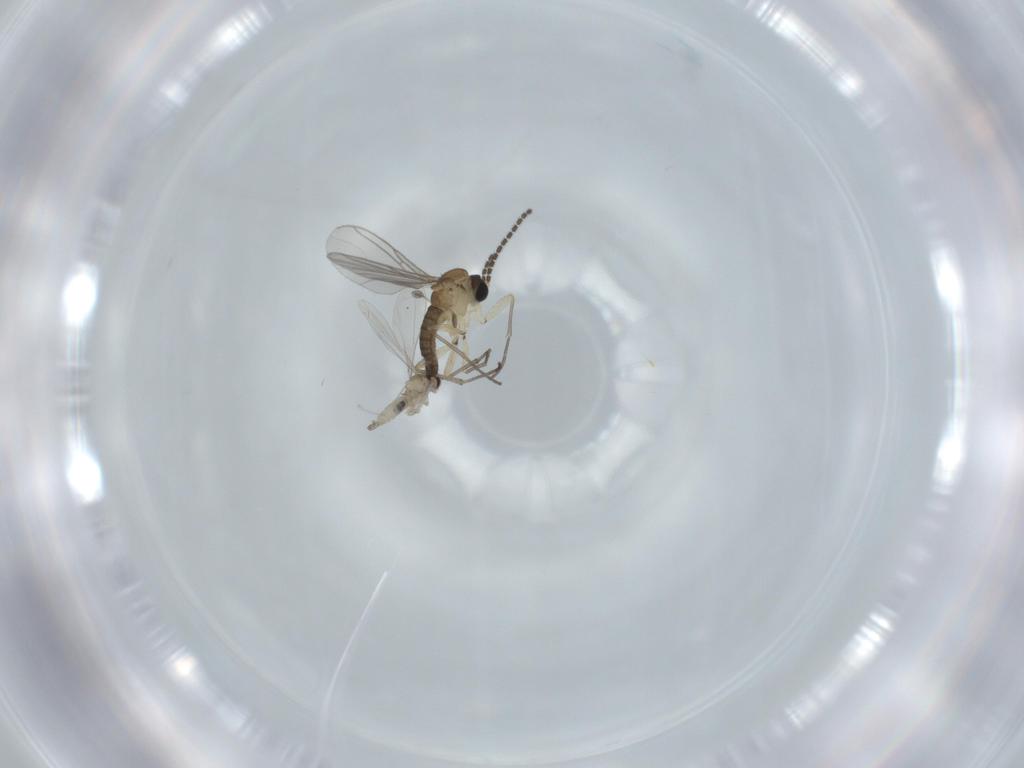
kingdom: Animalia
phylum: Arthropoda
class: Insecta
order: Diptera
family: Sciaridae
